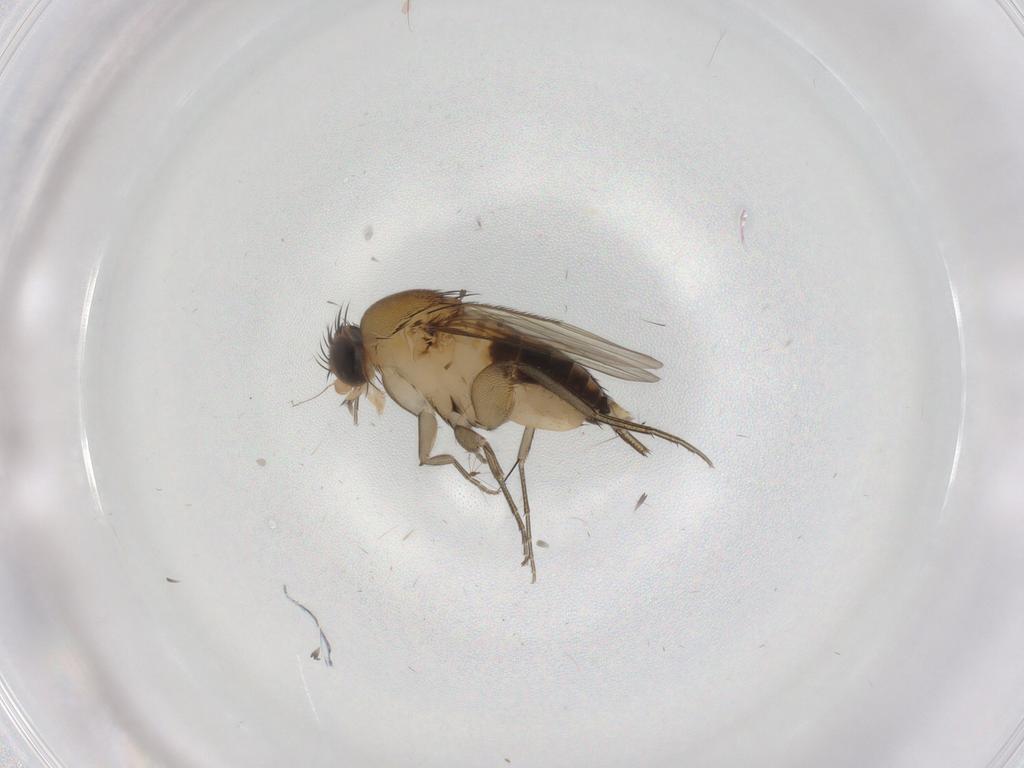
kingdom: Animalia
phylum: Arthropoda
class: Insecta
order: Diptera
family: Phoridae
